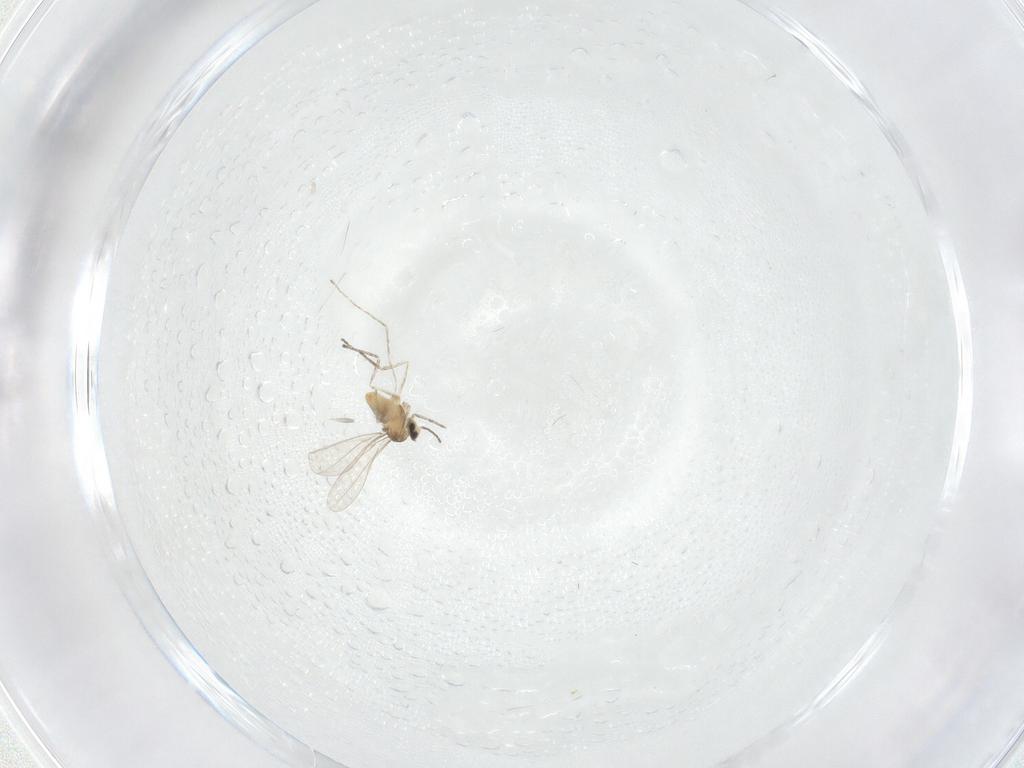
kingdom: Animalia
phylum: Arthropoda
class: Insecta
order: Diptera
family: Cecidomyiidae
